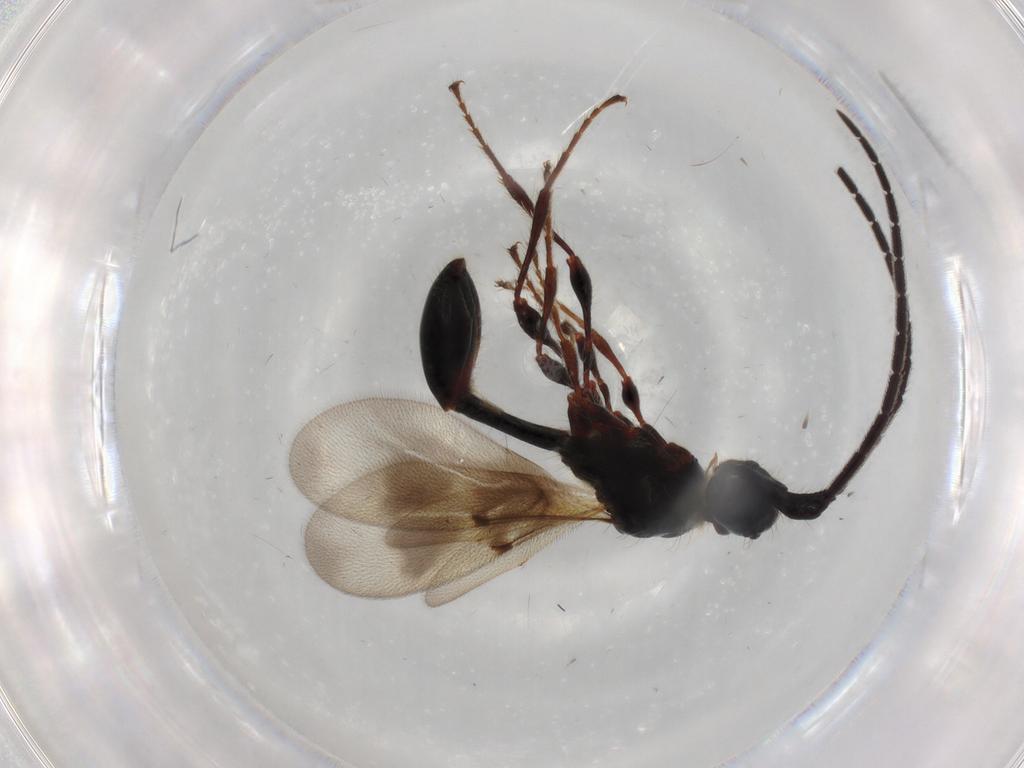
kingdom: Animalia
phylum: Arthropoda
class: Insecta
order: Hymenoptera
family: Diapriidae
